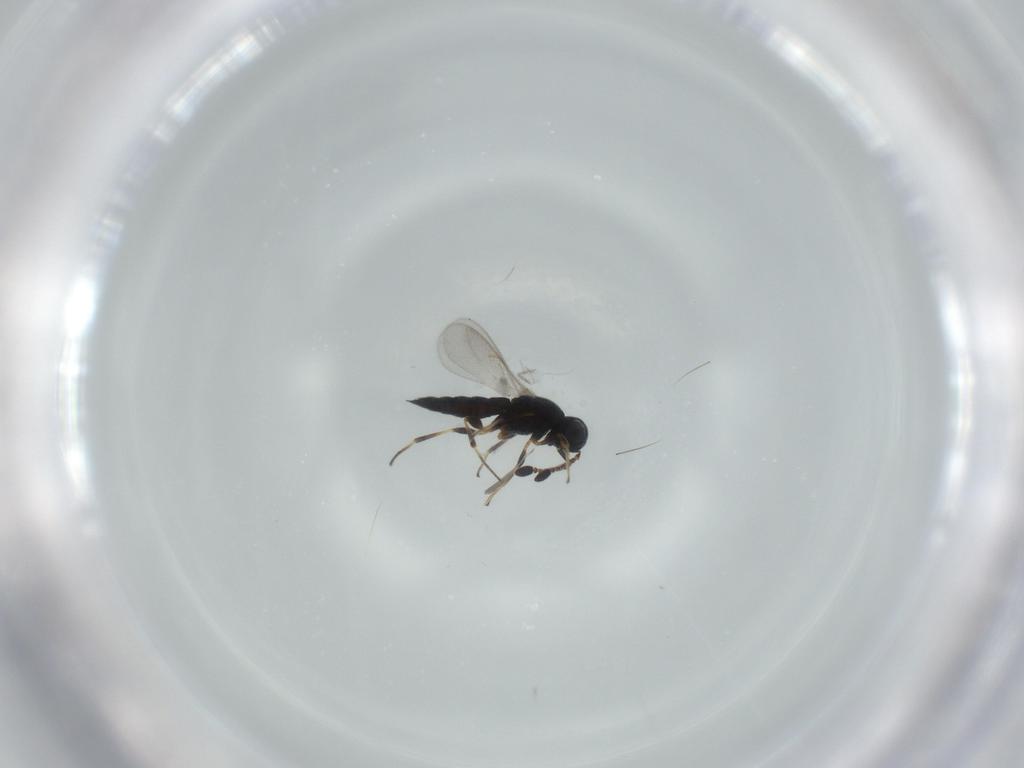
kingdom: Animalia
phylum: Arthropoda
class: Insecta
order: Hymenoptera
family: Scelionidae
